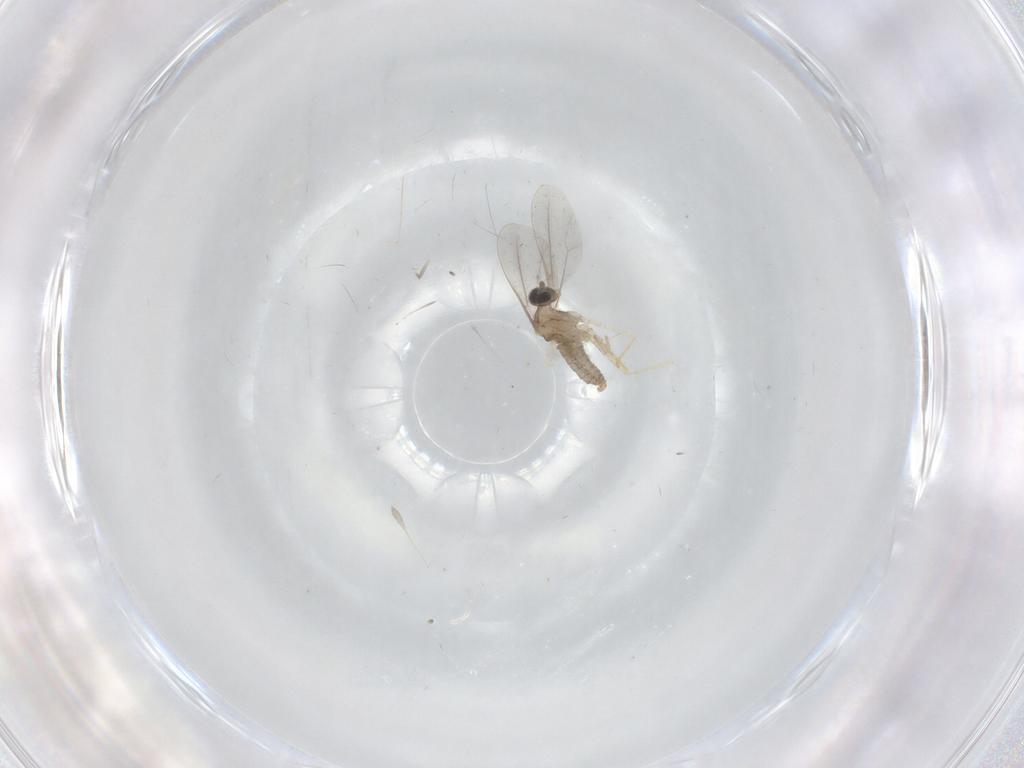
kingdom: Animalia
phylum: Arthropoda
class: Insecta
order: Diptera
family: Cecidomyiidae
